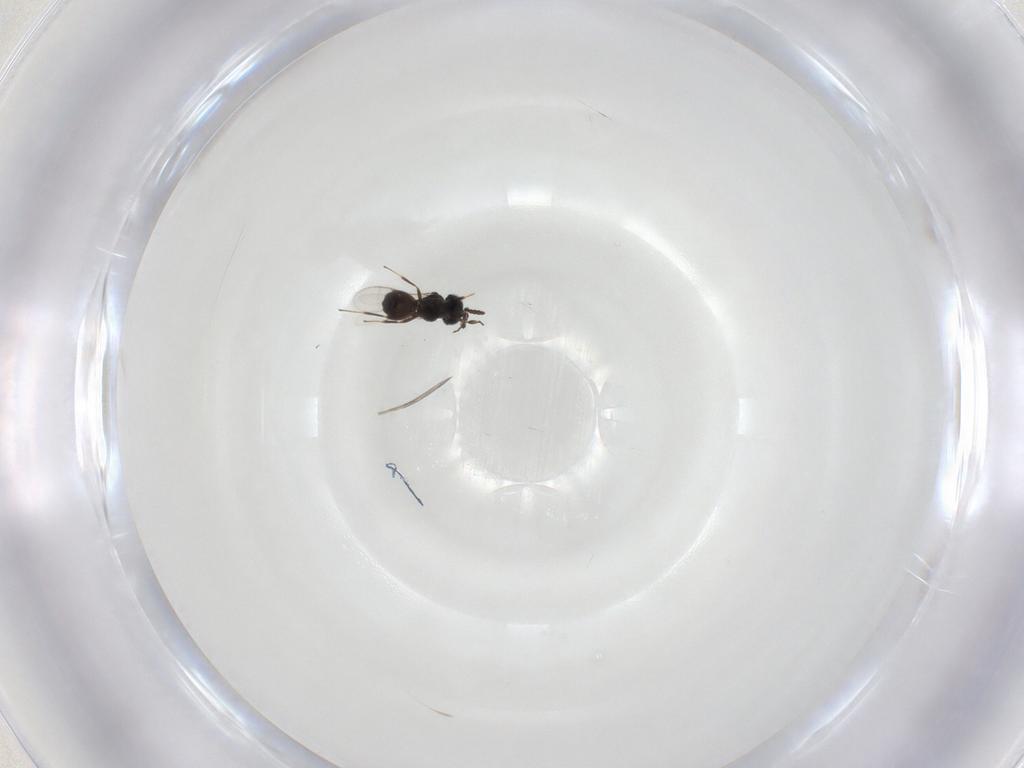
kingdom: Animalia
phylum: Arthropoda
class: Insecta
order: Hymenoptera
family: Scelionidae
